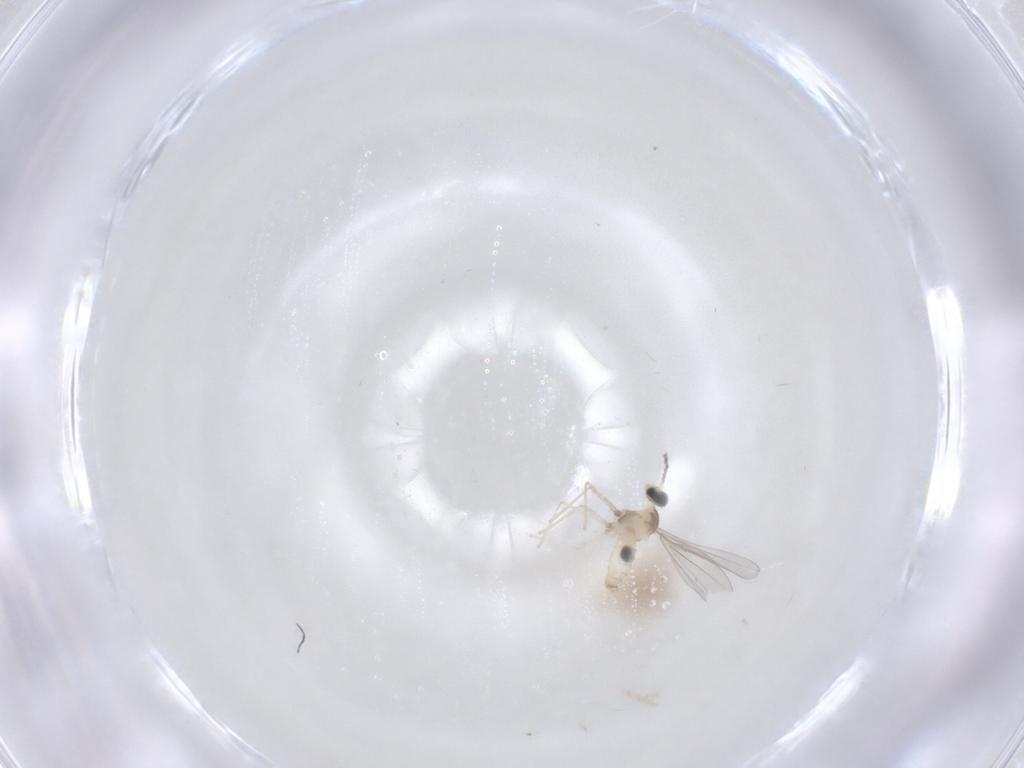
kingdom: Animalia
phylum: Arthropoda
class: Insecta
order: Diptera
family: Cecidomyiidae
